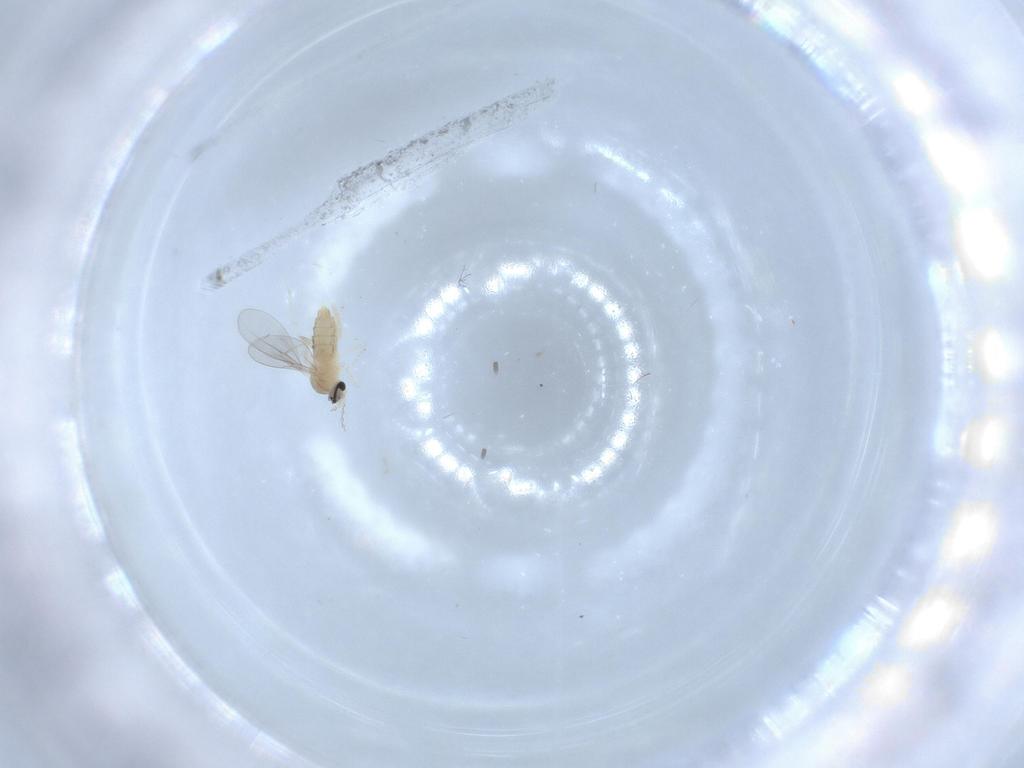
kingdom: Animalia
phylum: Arthropoda
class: Insecta
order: Diptera
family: Cecidomyiidae
